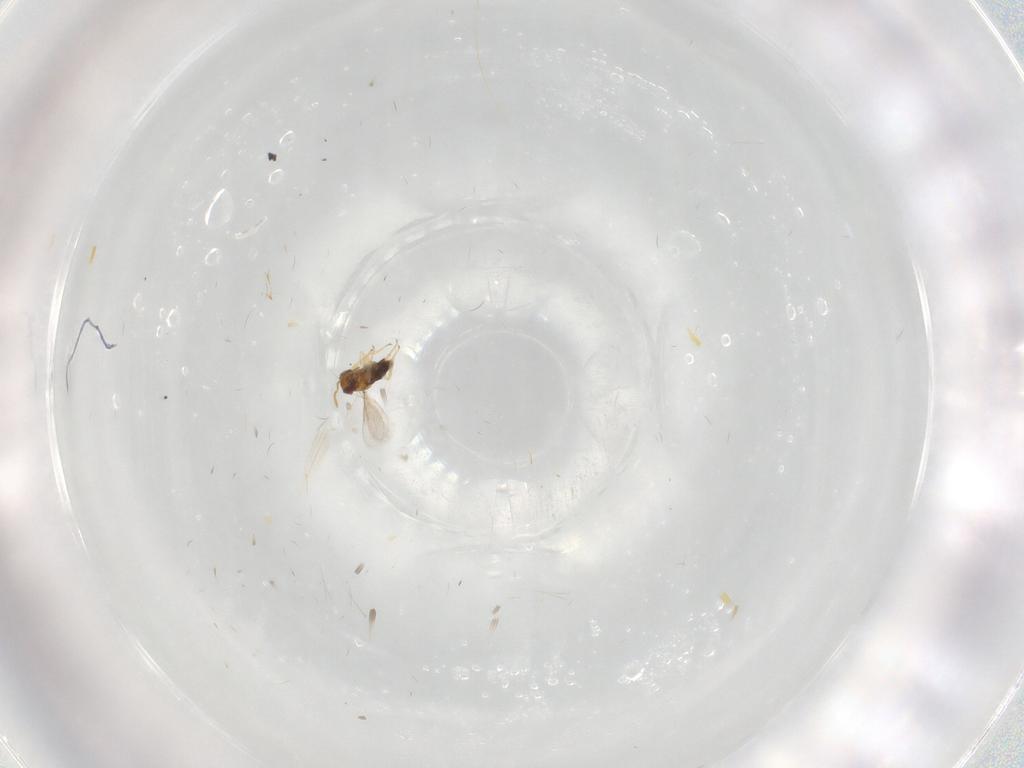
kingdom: Animalia
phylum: Arthropoda
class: Insecta
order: Hymenoptera
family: Aphelinidae
